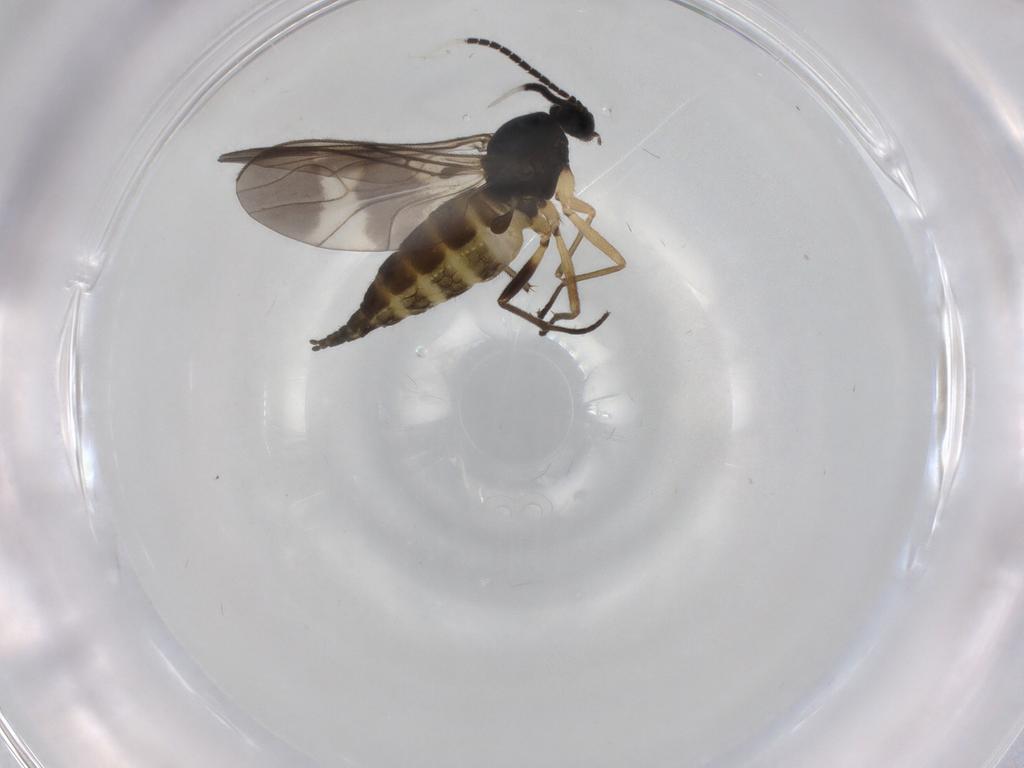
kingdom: Animalia
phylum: Arthropoda
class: Insecta
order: Diptera
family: Sciaridae
